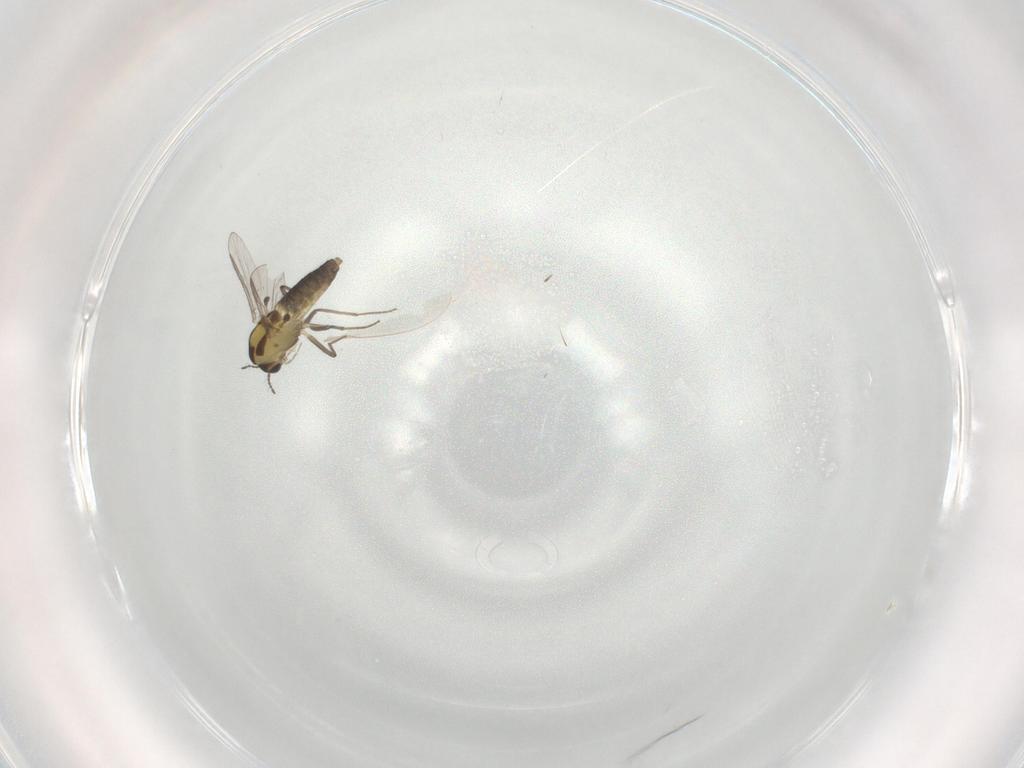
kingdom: Animalia
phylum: Arthropoda
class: Insecta
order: Diptera
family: Chironomidae
